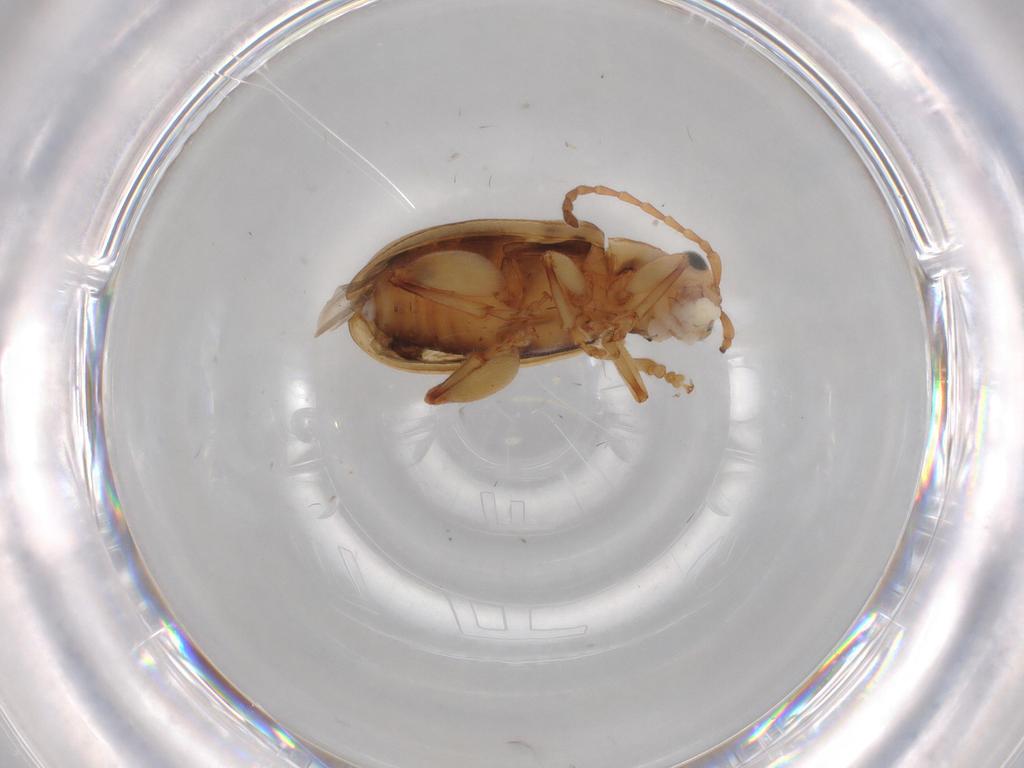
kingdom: Animalia
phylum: Arthropoda
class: Insecta
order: Coleoptera
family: Chrysomelidae
